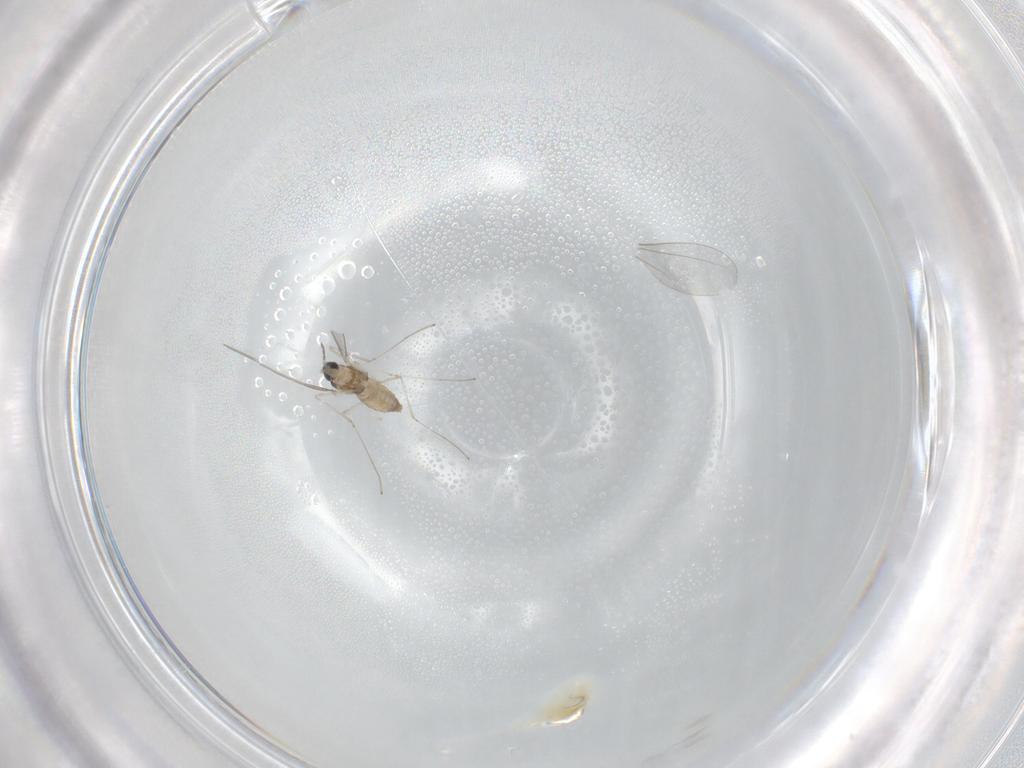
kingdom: Animalia
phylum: Arthropoda
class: Insecta
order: Diptera
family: Cecidomyiidae
